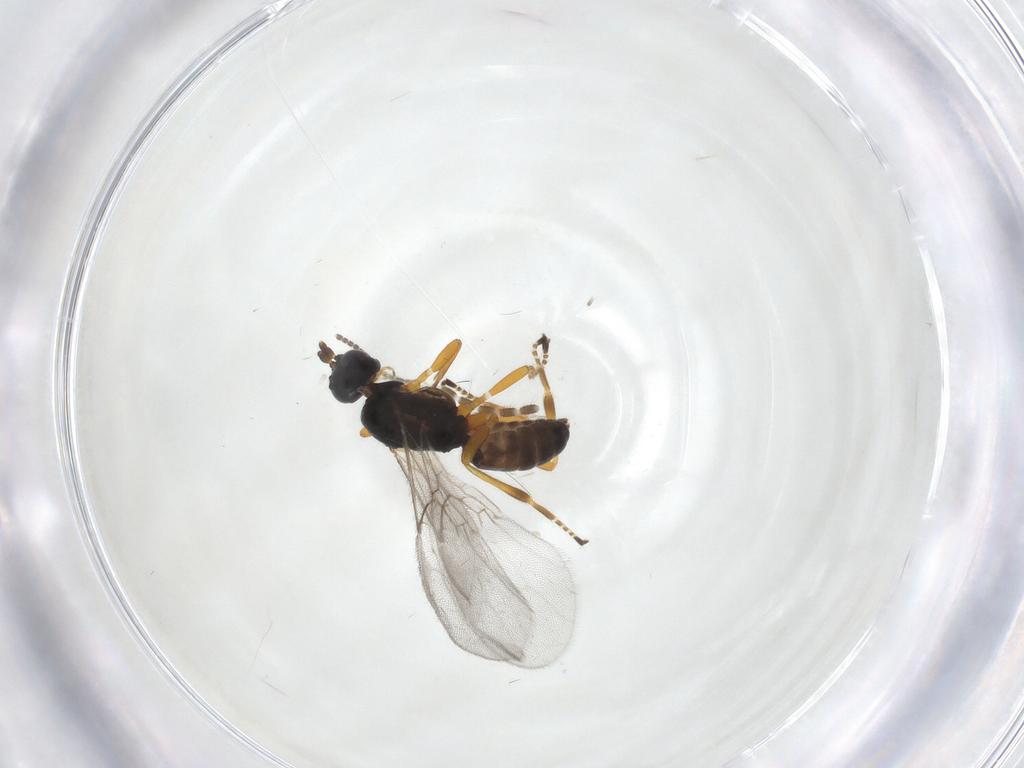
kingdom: Animalia
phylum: Arthropoda
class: Insecta
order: Hymenoptera
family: Braconidae
